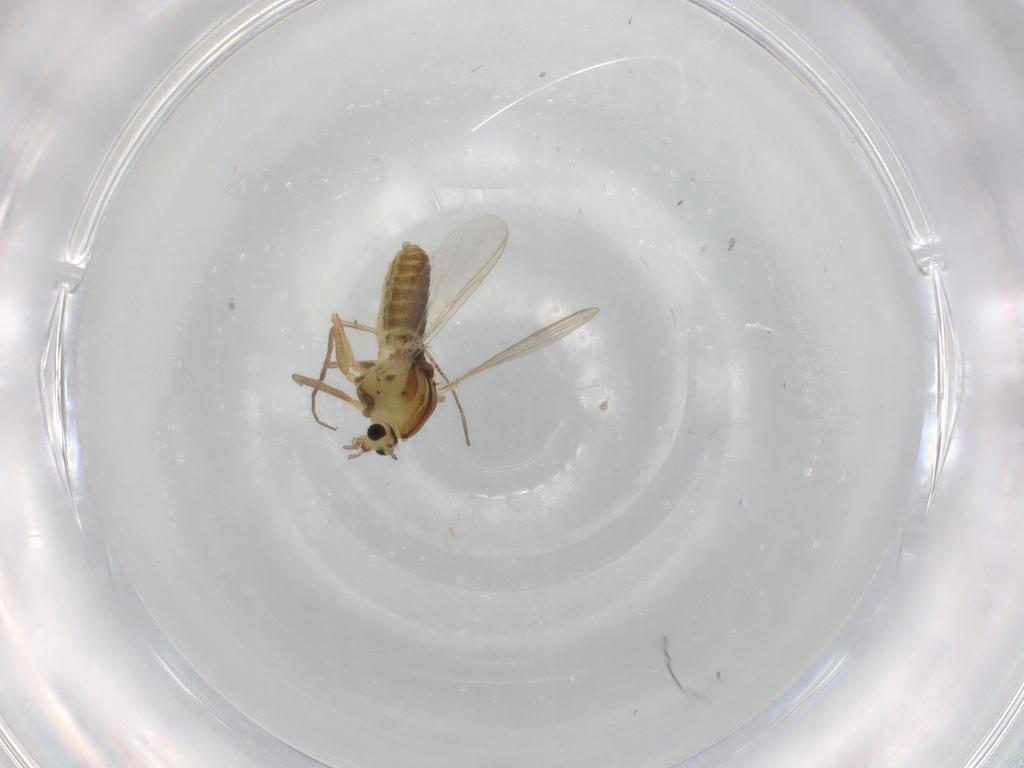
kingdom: Animalia
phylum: Arthropoda
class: Insecta
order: Diptera
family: Chironomidae
